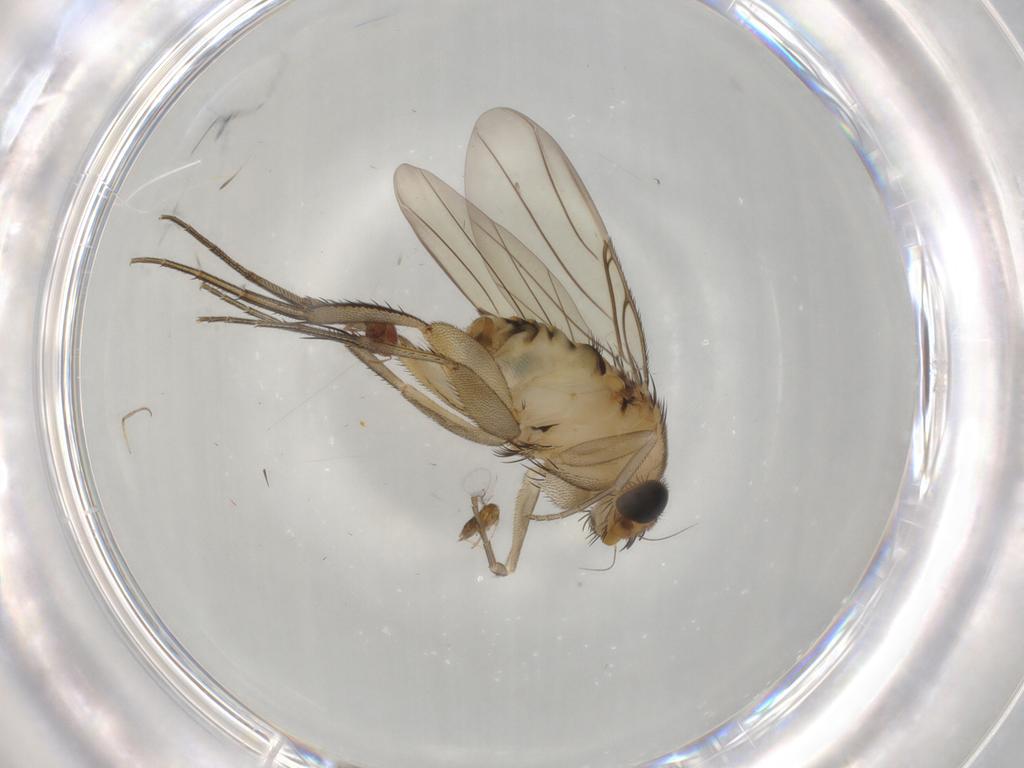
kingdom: Animalia
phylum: Arthropoda
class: Insecta
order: Hymenoptera
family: Trichogrammatidae
